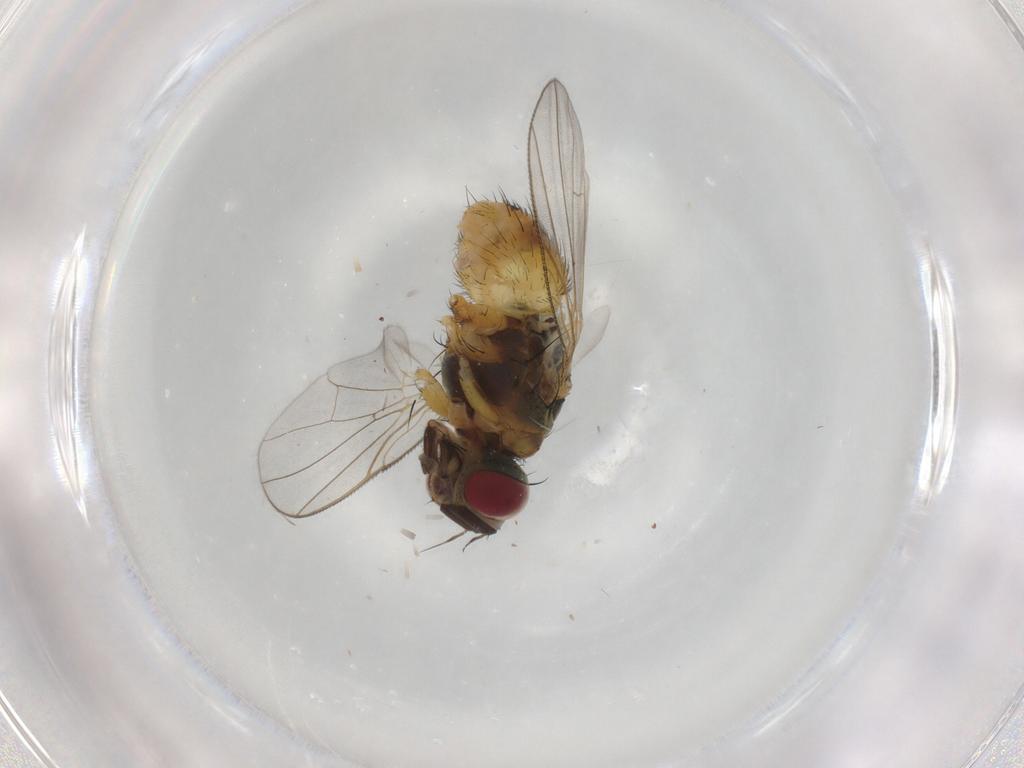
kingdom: Animalia
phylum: Arthropoda
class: Insecta
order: Diptera
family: Muscidae
